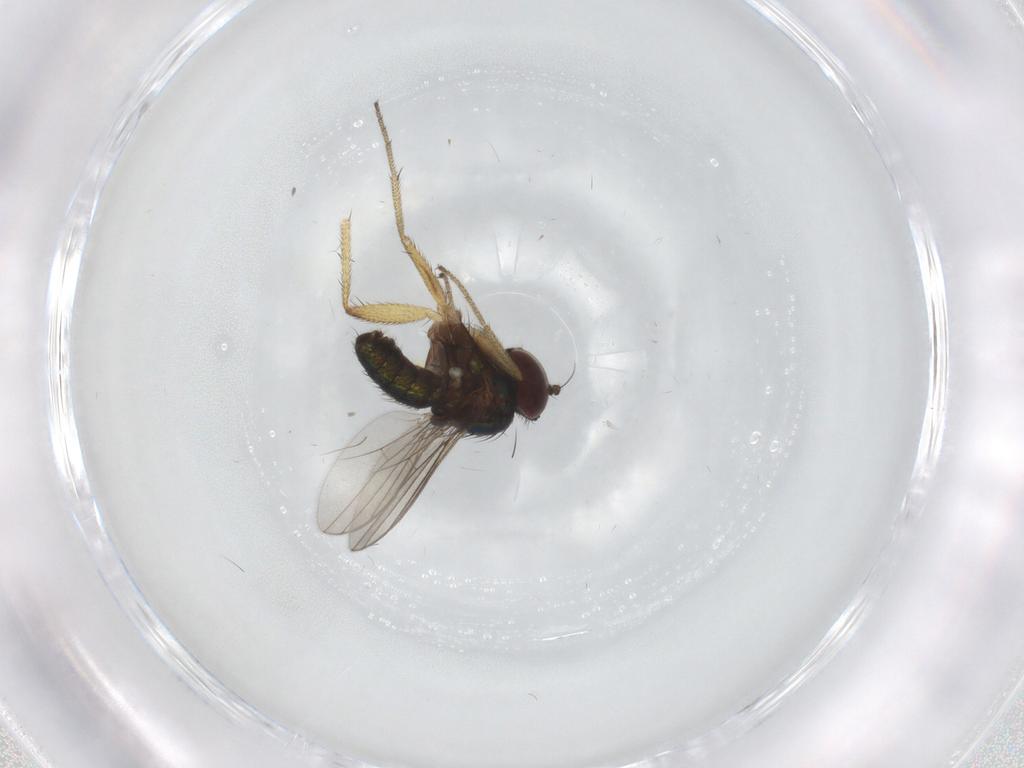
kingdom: Animalia
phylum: Arthropoda
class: Insecta
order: Diptera
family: Dolichopodidae
